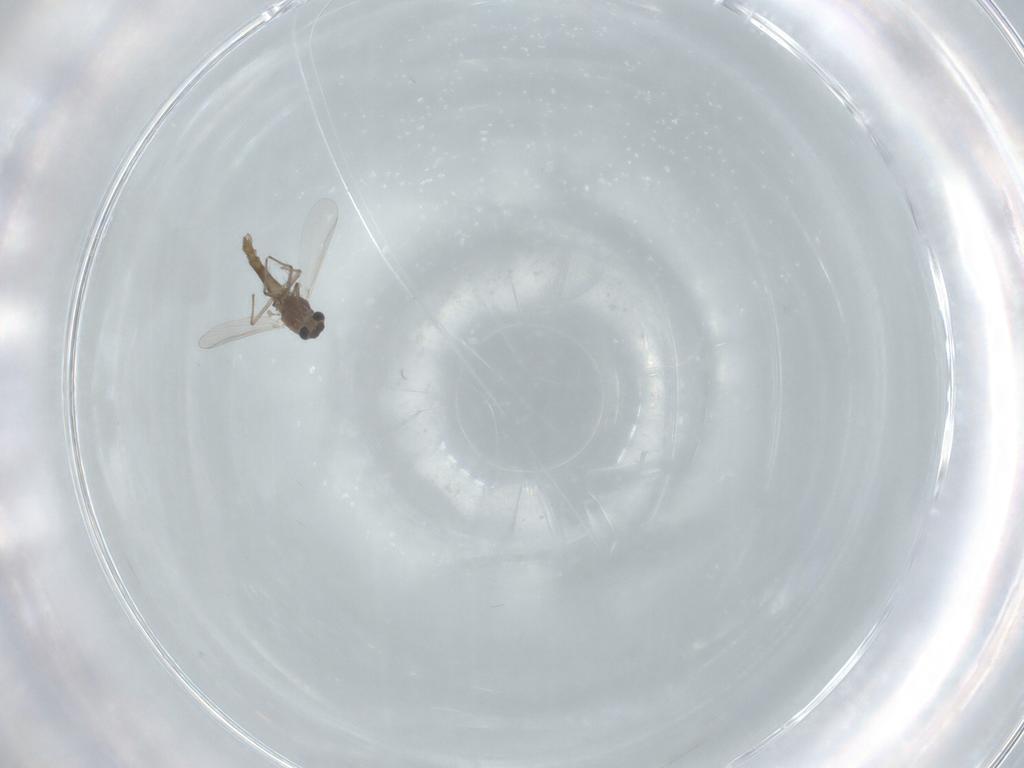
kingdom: Animalia
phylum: Arthropoda
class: Insecta
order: Diptera
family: Chironomidae
